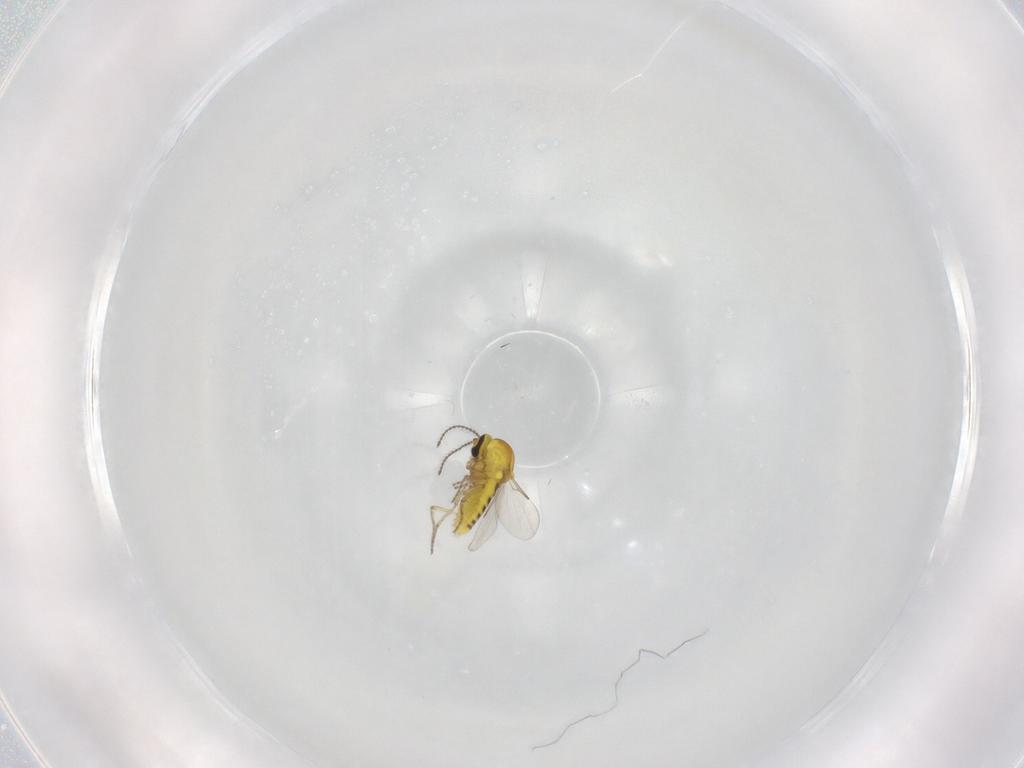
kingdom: Animalia
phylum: Arthropoda
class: Insecta
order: Diptera
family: Ceratopogonidae
